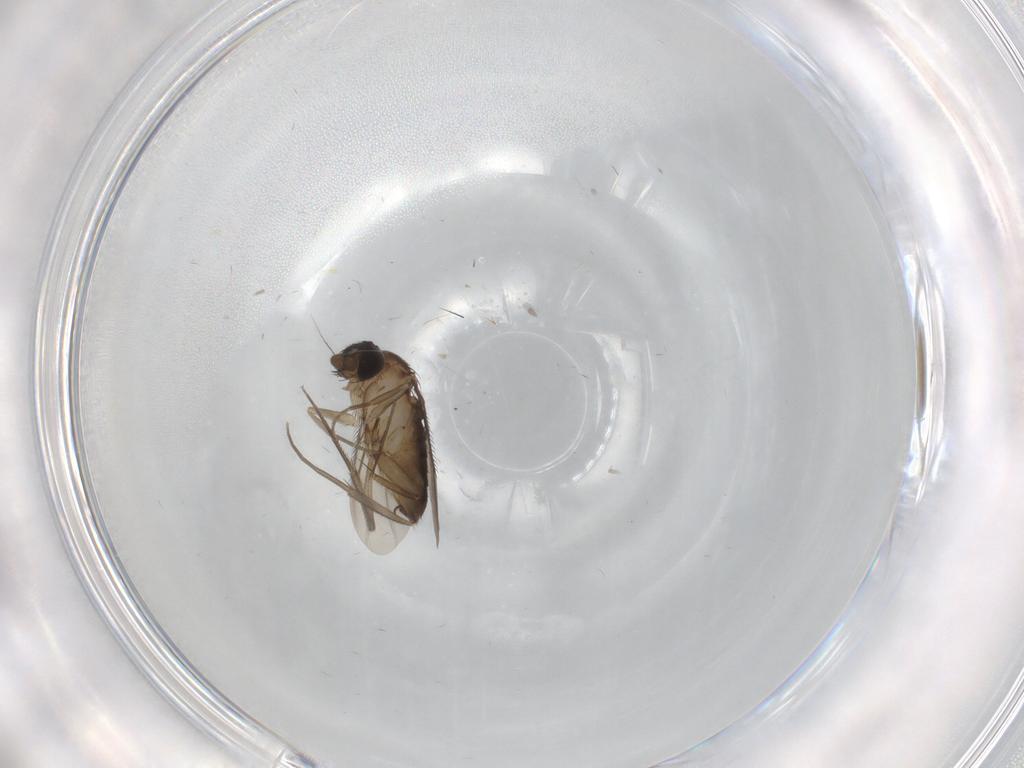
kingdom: Animalia
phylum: Arthropoda
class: Insecta
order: Diptera
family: Phoridae
